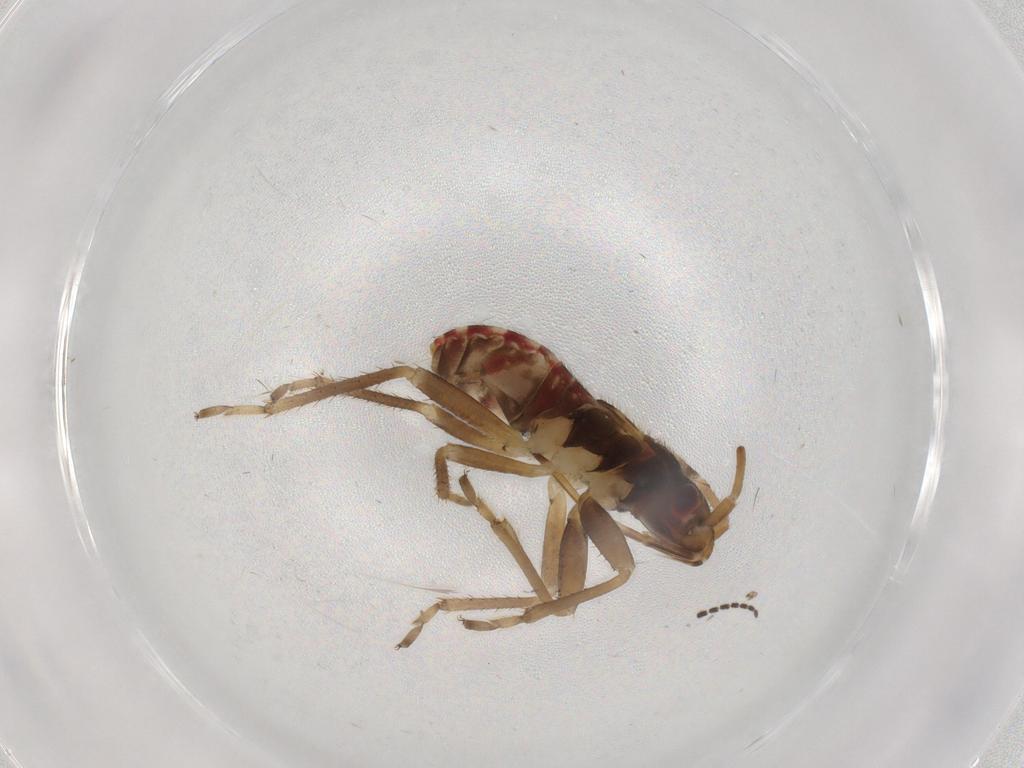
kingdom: Animalia
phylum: Arthropoda
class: Insecta
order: Hemiptera
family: Rhyparochromidae
